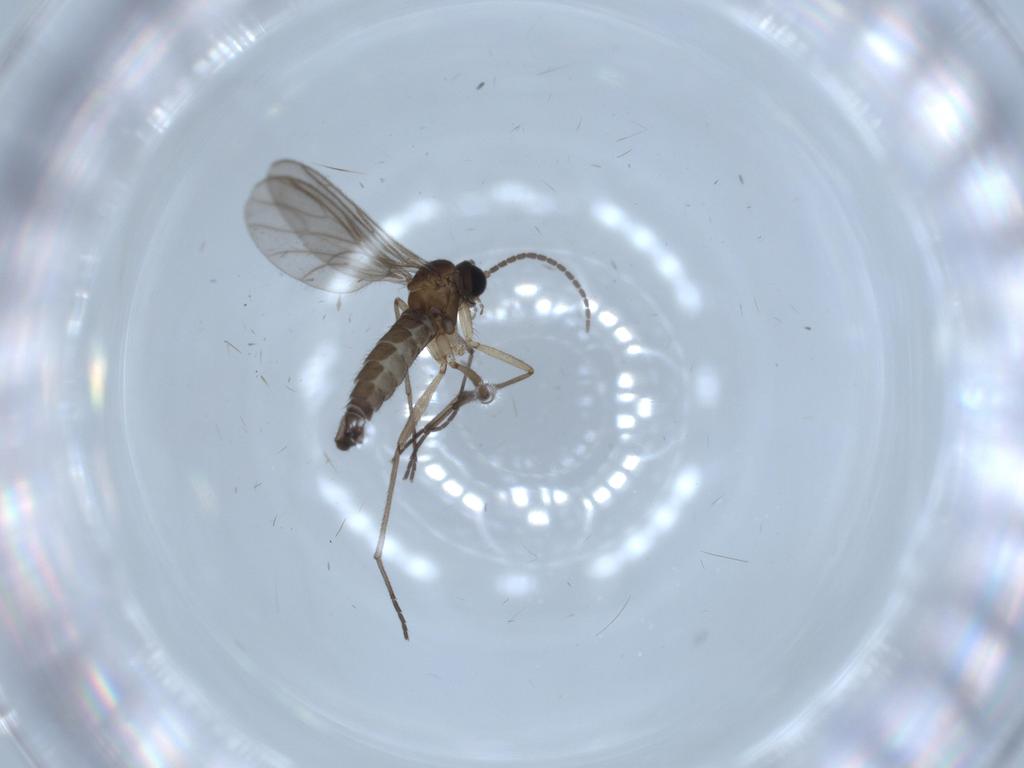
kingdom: Animalia
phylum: Arthropoda
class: Insecta
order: Diptera
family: Sciaridae
